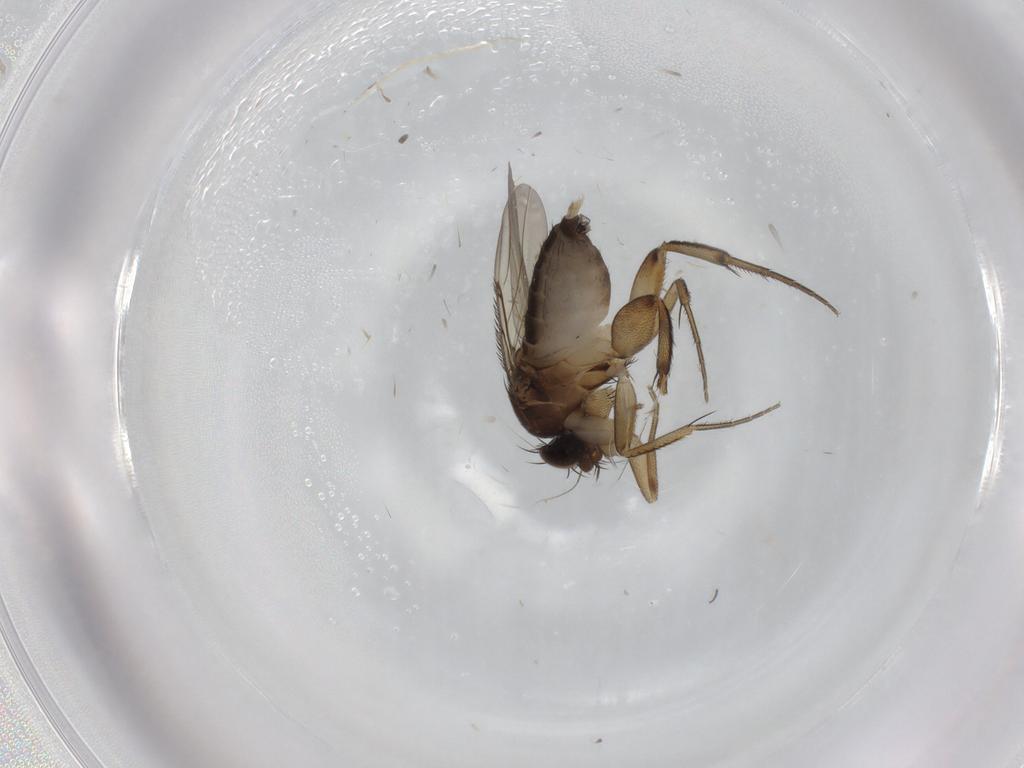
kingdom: Animalia
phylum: Arthropoda
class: Insecta
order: Diptera
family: Phoridae
